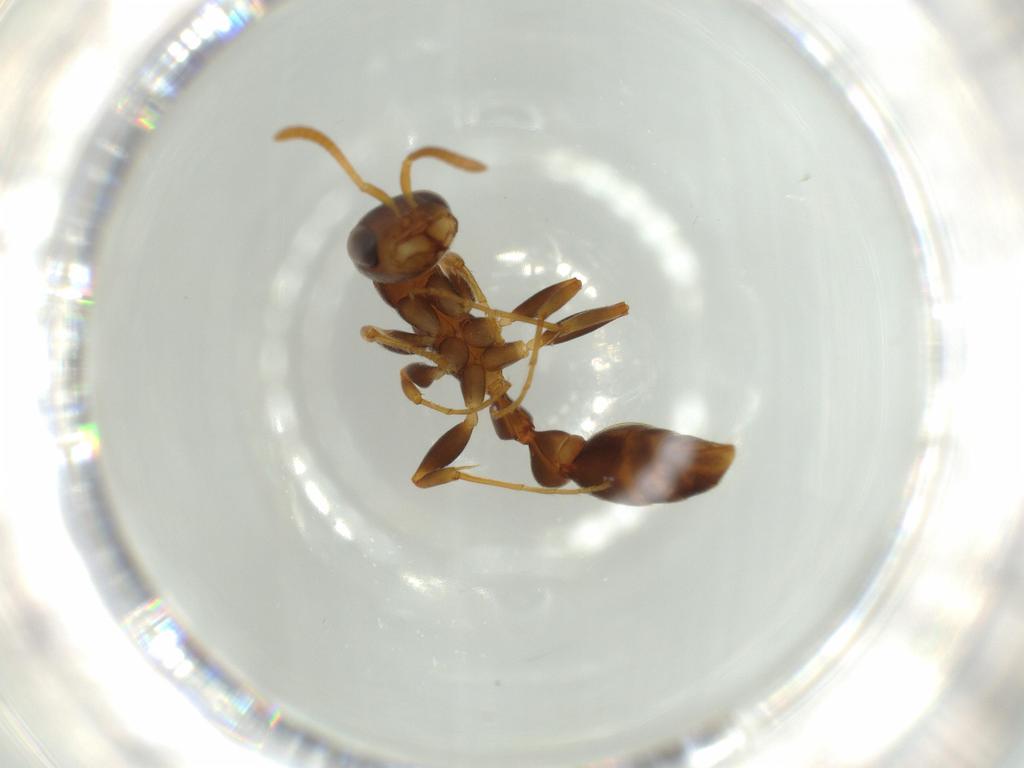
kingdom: Animalia
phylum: Arthropoda
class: Insecta
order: Hymenoptera
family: Formicidae
